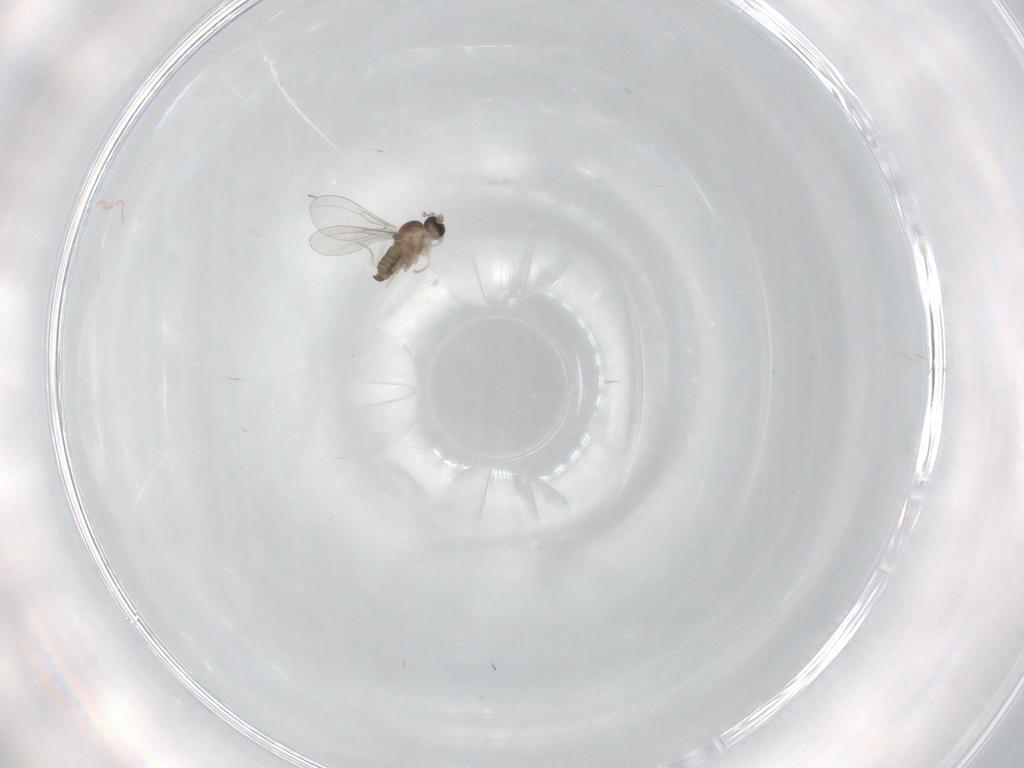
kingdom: Animalia
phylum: Arthropoda
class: Insecta
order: Diptera
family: Cecidomyiidae
